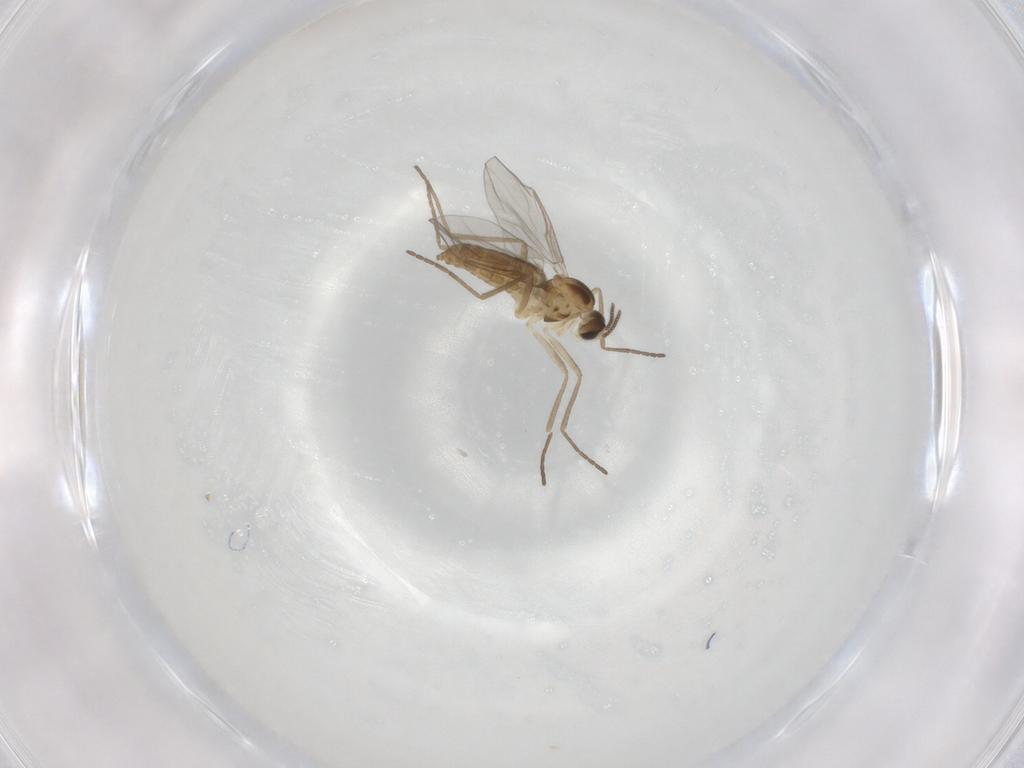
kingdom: Animalia
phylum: Arthropoda
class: Insecta
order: Diptera
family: Cecidomyiidae
